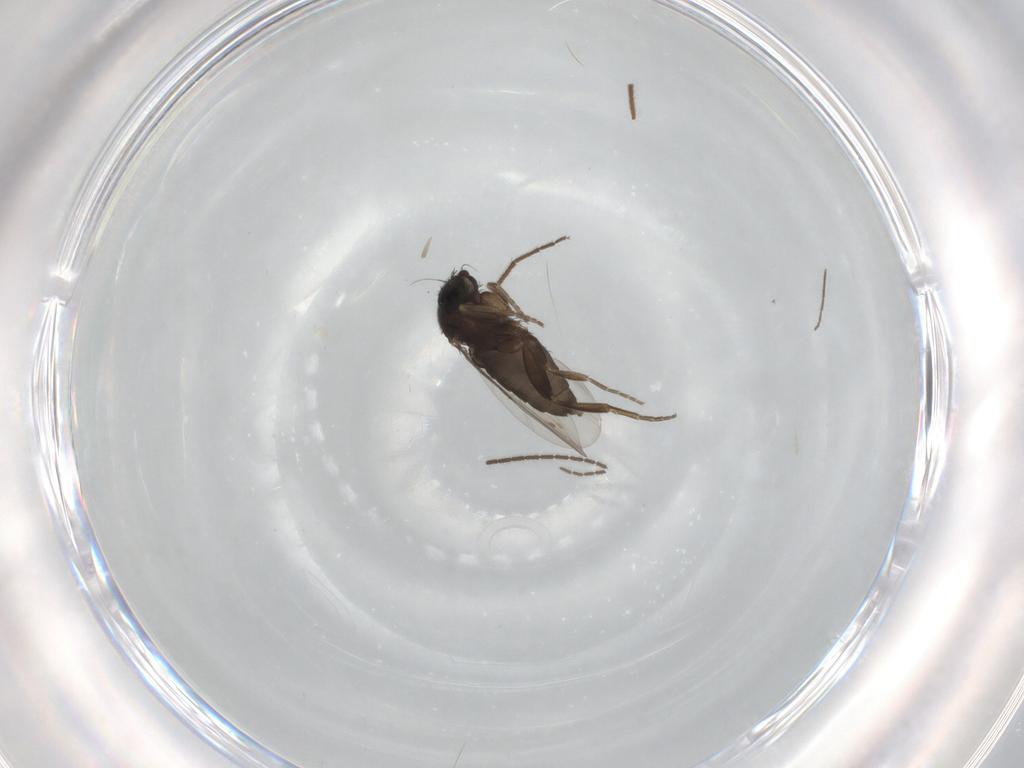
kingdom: Animalia
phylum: Arthropoda
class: Insecta
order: Diptera
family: Phoridae
